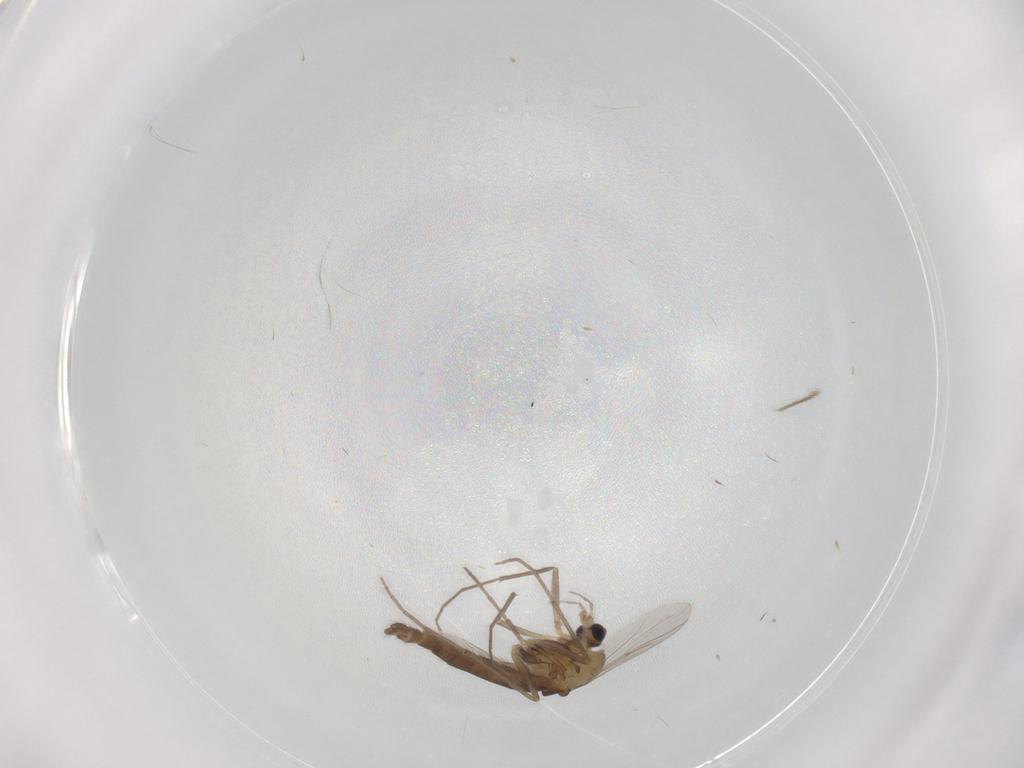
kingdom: Animalia
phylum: Arthropoda
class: Insecta
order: Diptera
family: Chironomidae
